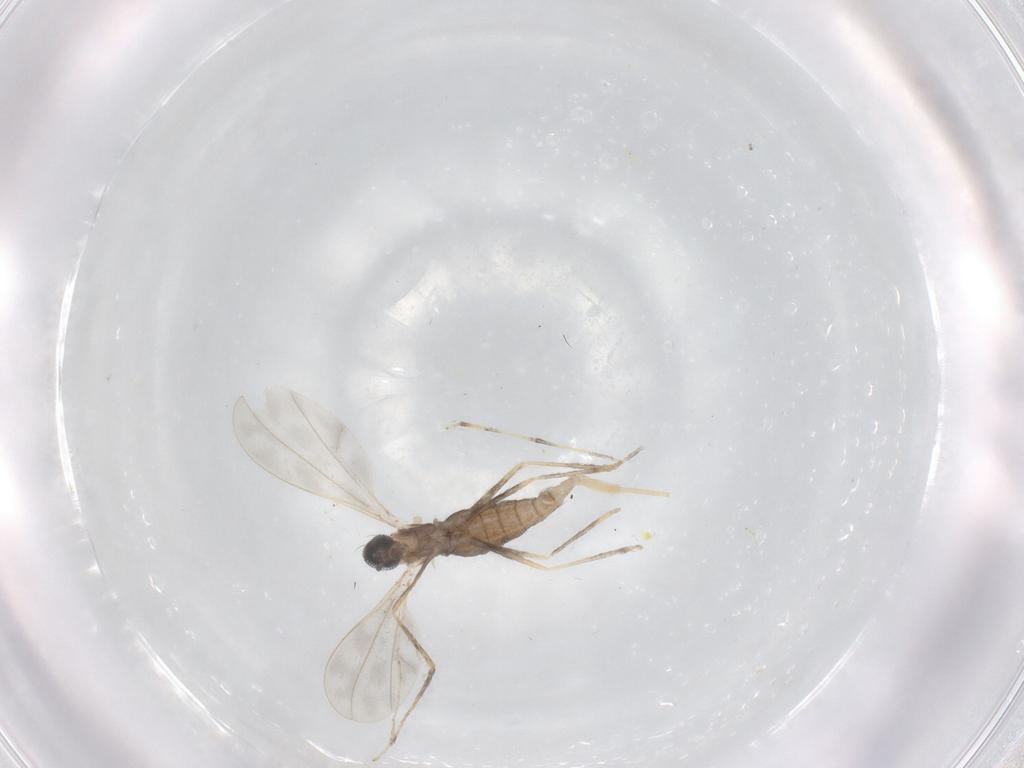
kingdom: Animalia
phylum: Arthropoda
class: Insecta
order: Diptera
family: Cecidomyiidae
